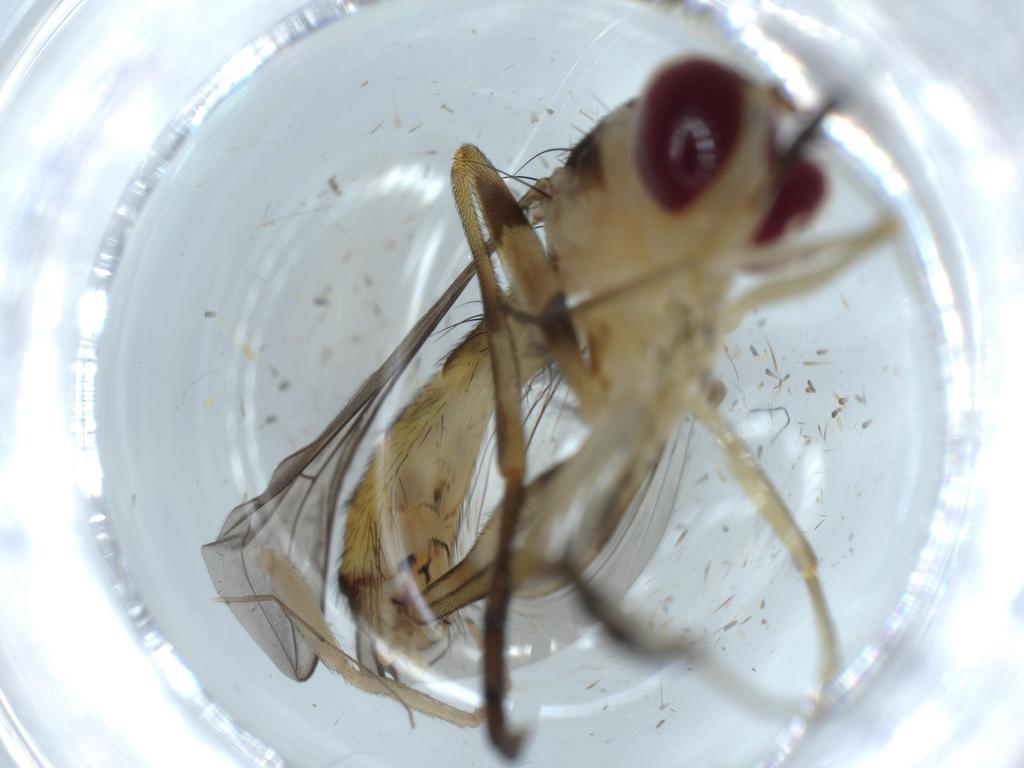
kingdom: Animalia
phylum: Arthropoda
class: Insecta
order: Diptera
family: Conopidae
